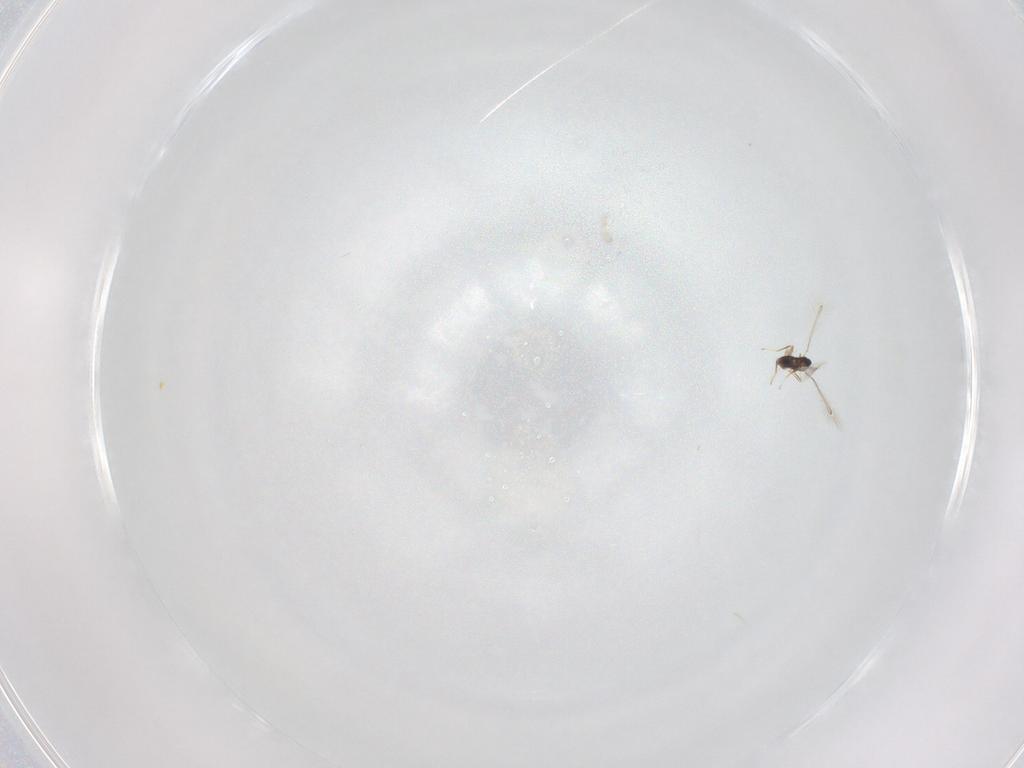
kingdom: Animalia
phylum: Arthropoda
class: Insecta
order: Hymenoptera
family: Mymaridae
